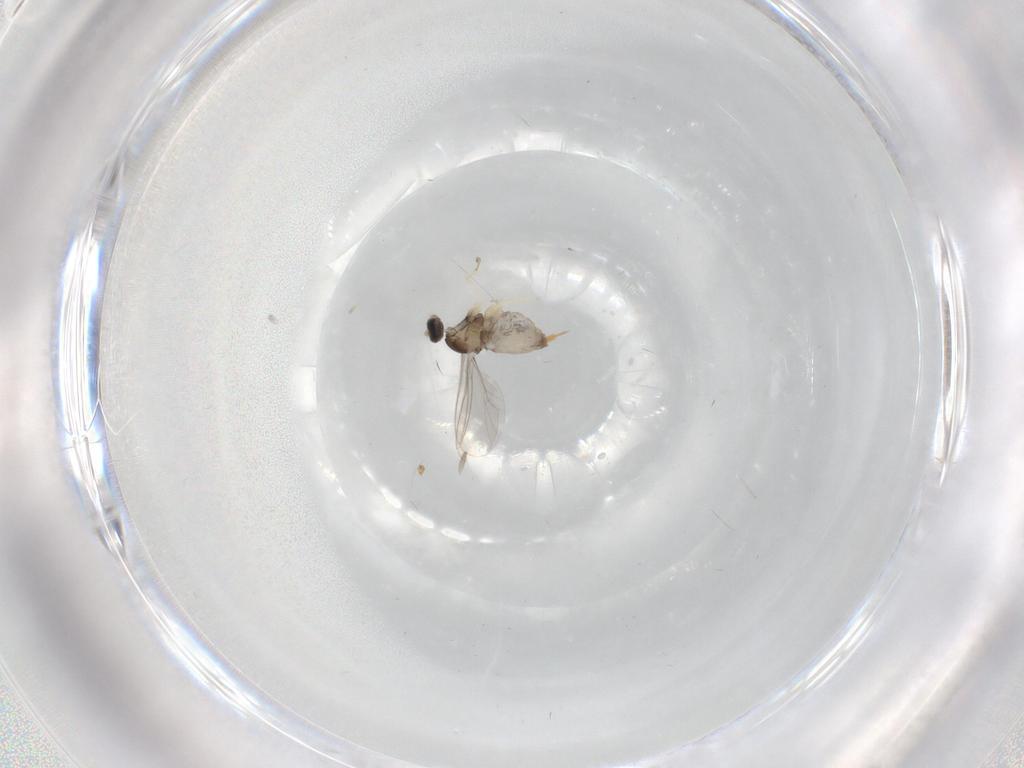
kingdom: Animalia
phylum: Arthropoda
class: Insecta
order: Diptera
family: Cecidomyiidae
